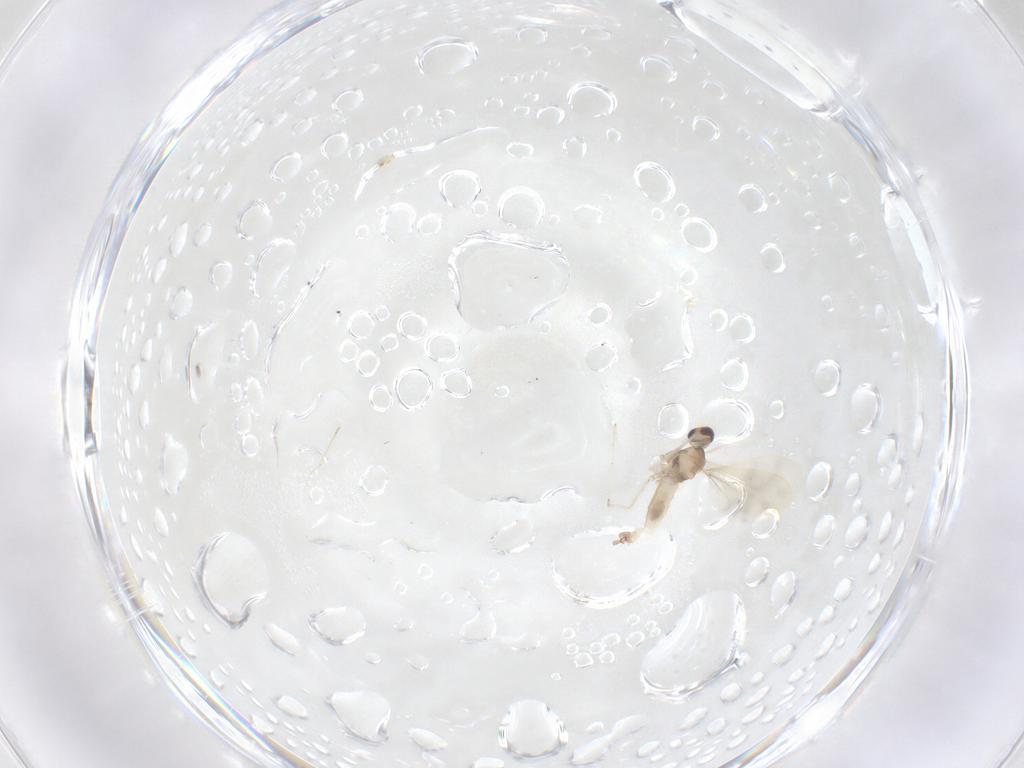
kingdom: Animalia
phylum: Arthropoda
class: Insecta
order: Diptera
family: Cecidomyiidae
